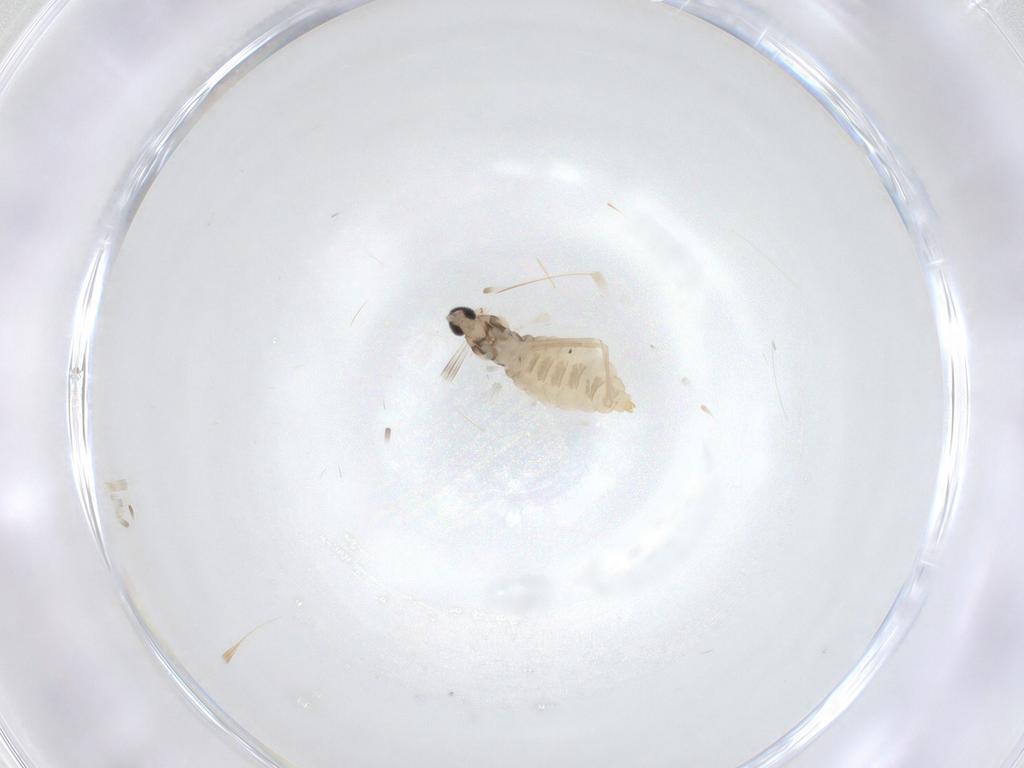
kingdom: Animalia
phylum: Arthropoda
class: Insecta
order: Diptera
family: Cecidomyiidae
